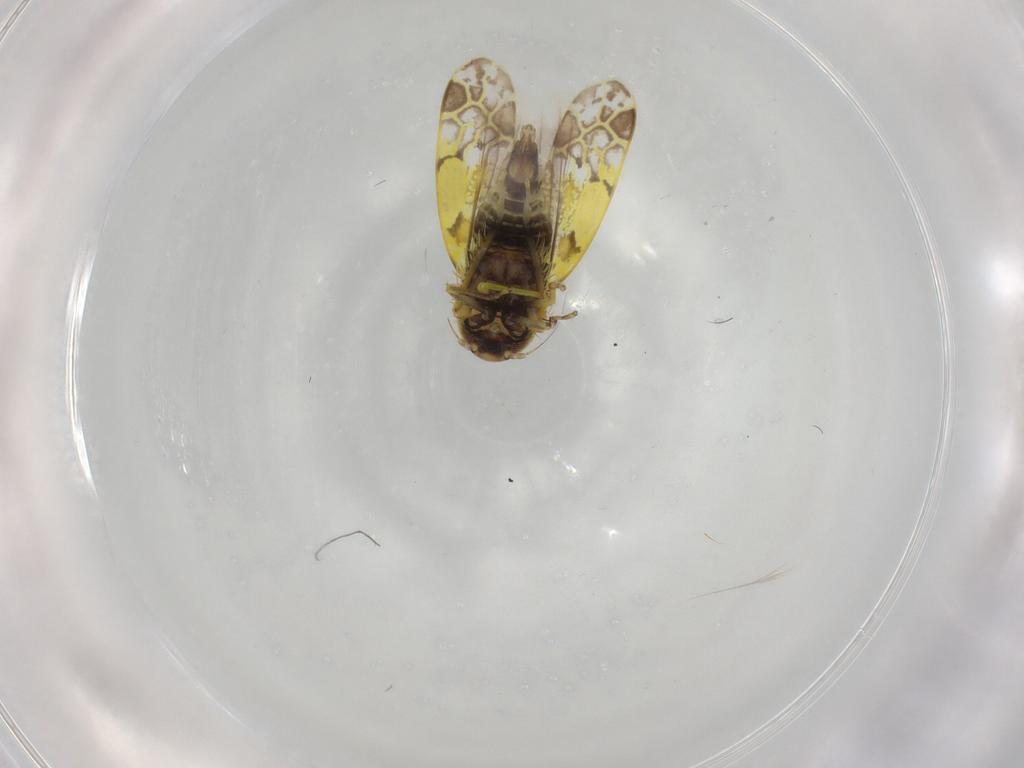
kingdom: Animalia
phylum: Arthropoda
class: Insecta
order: Hemiptera
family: Cicadellidae
